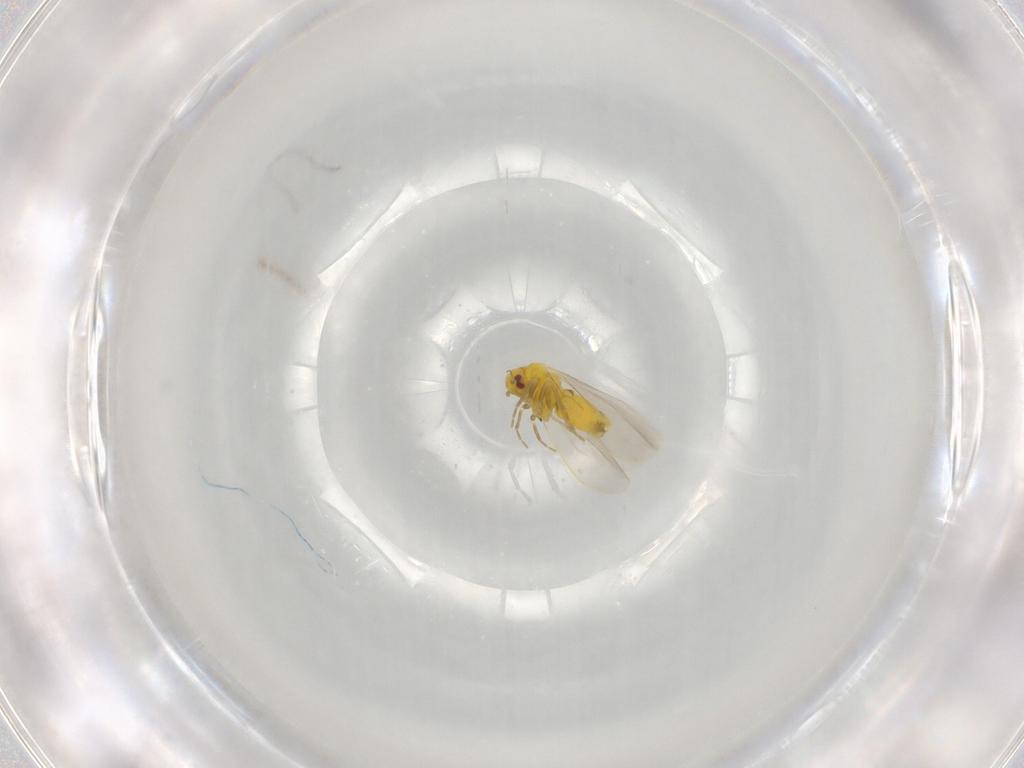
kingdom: Animalia
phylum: Arthropoda
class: Insecta
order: Hemiptera
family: Aleyrodidae
